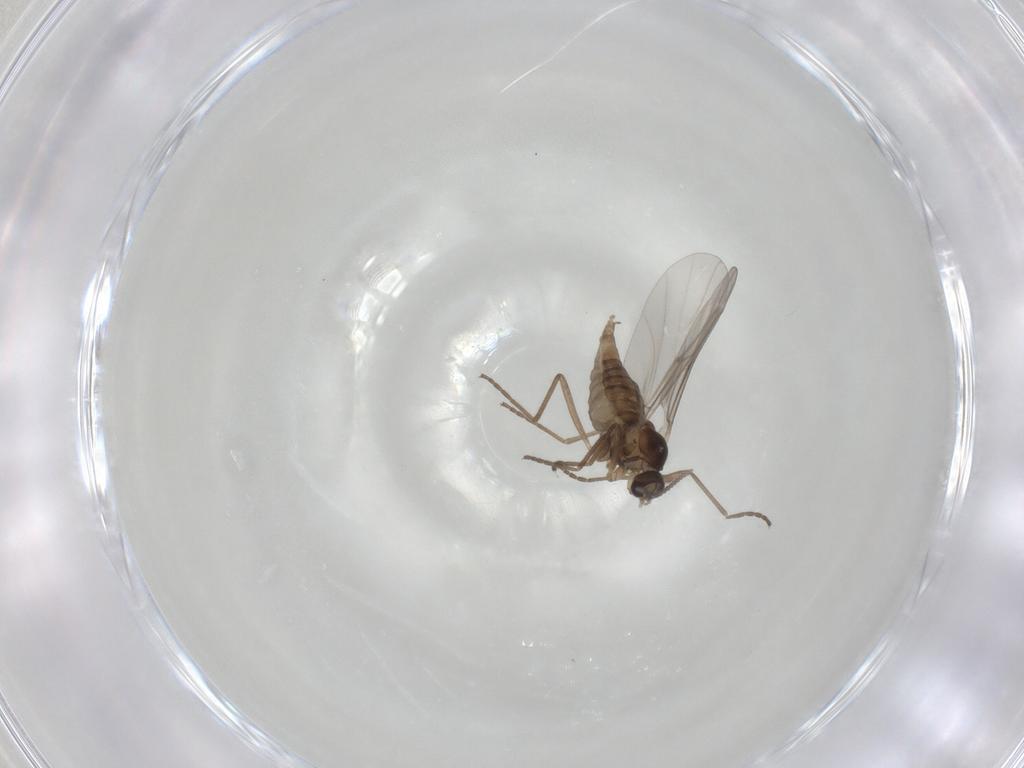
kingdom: Animalia
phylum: Arthropoda
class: Insecta
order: Diptera
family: Cecidomyiidae
